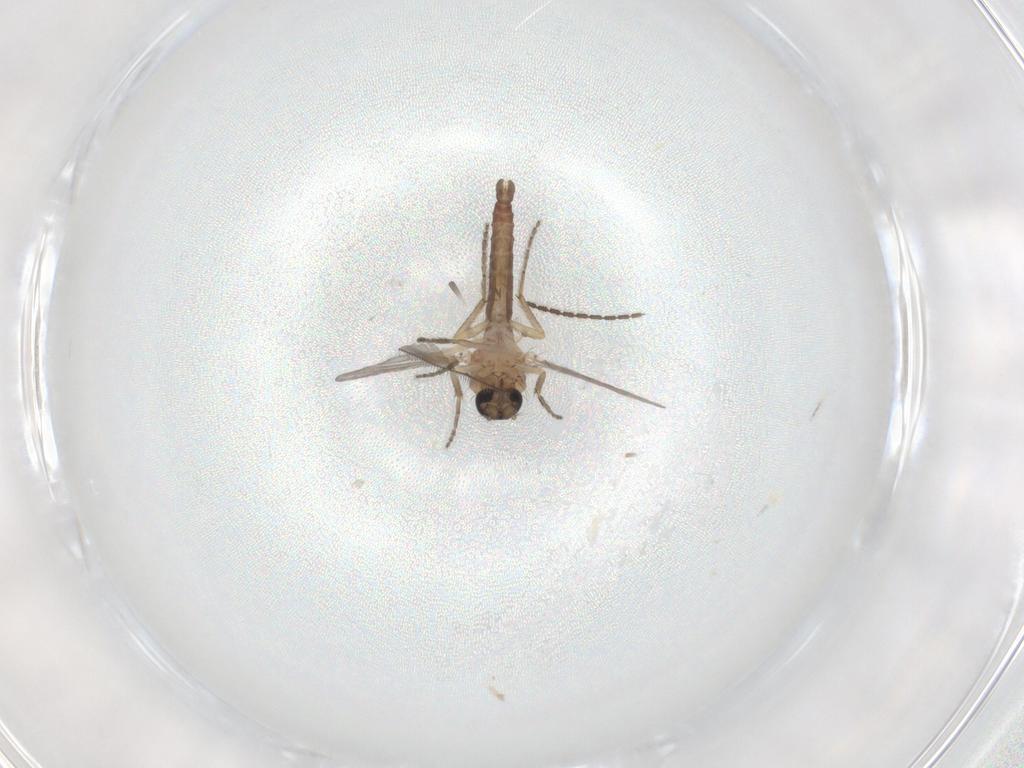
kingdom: Animalia
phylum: Arthropoda
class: Insecta
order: Diptera
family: Ceratopogonidae
